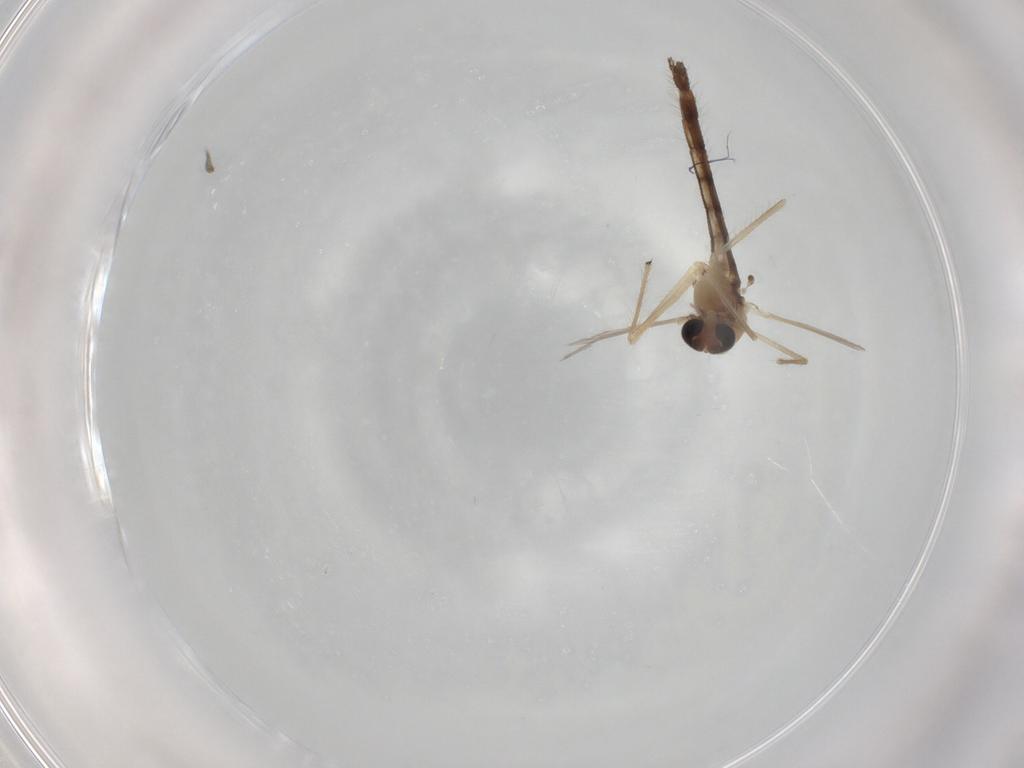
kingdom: Animalia
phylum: Arthropoda
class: Insecta
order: Diptera
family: Chironomidae
